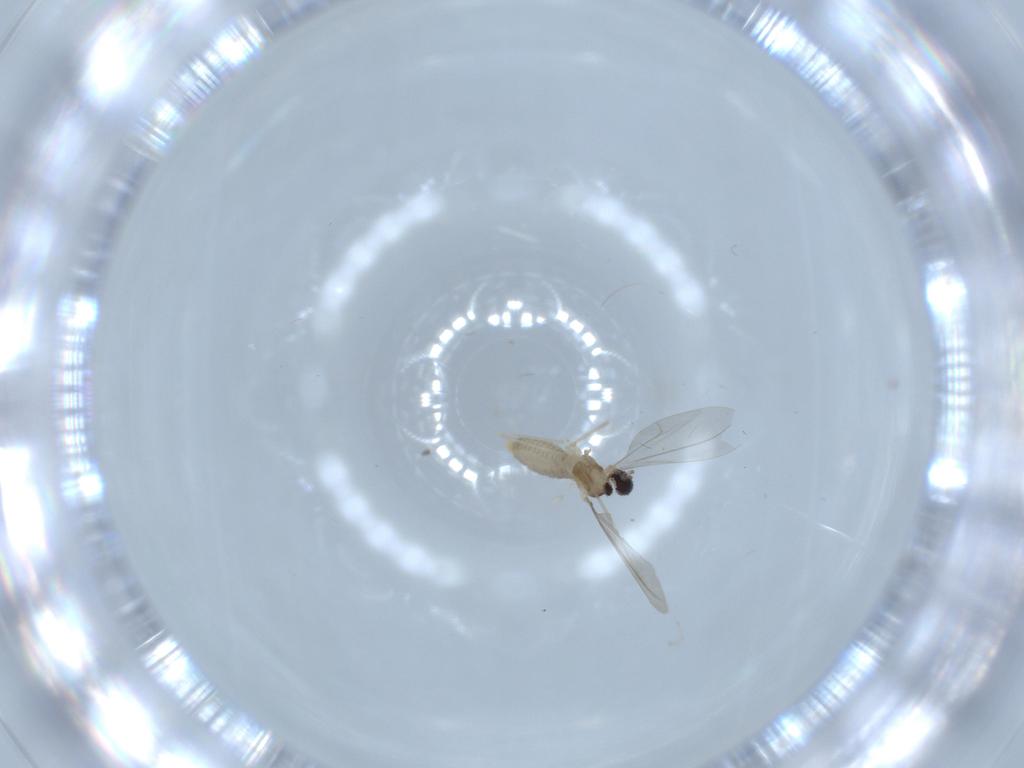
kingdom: Animalia
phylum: Arthropoda
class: Insecta
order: Diptera
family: Cecidomyiidae
